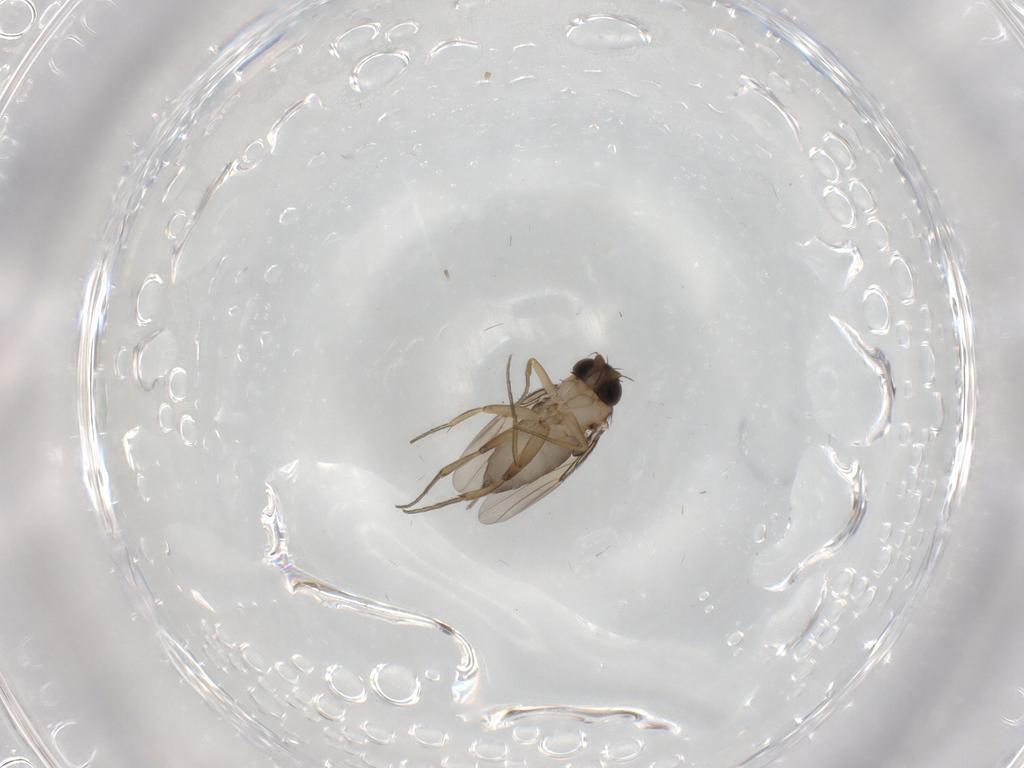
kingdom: Animalia
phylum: Arthropoda
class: Insecta
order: Diptera
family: Phoridae
